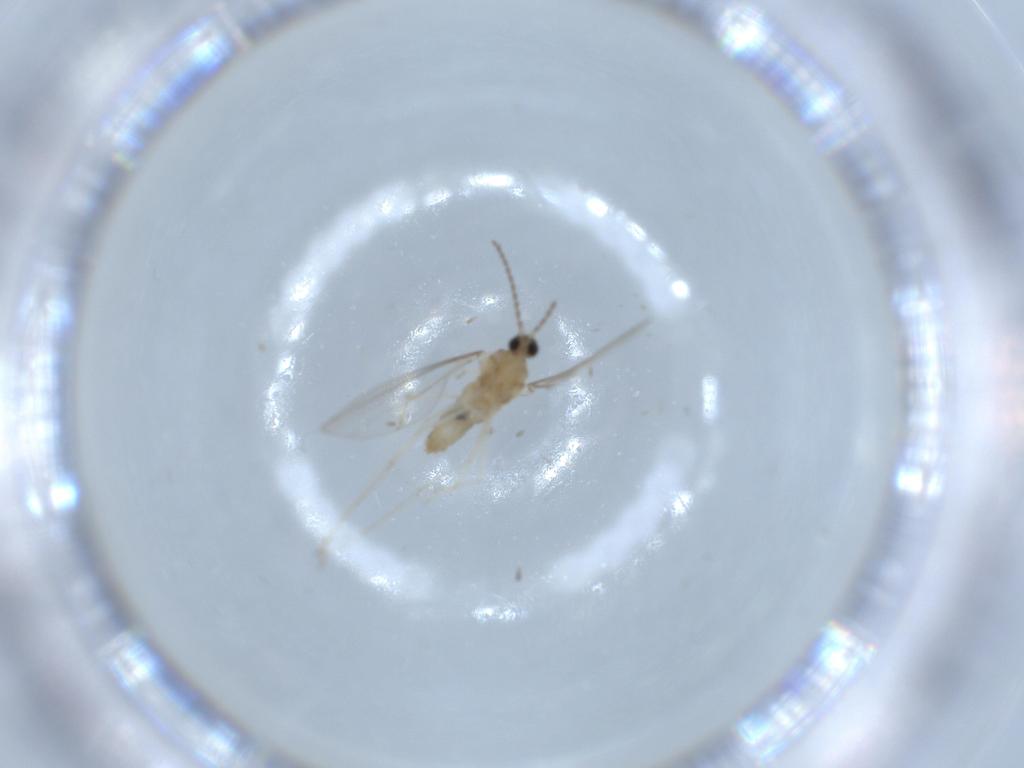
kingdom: Animalia
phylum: Arthropoda
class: Insecta
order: Diptera
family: Cecidomyiidae
